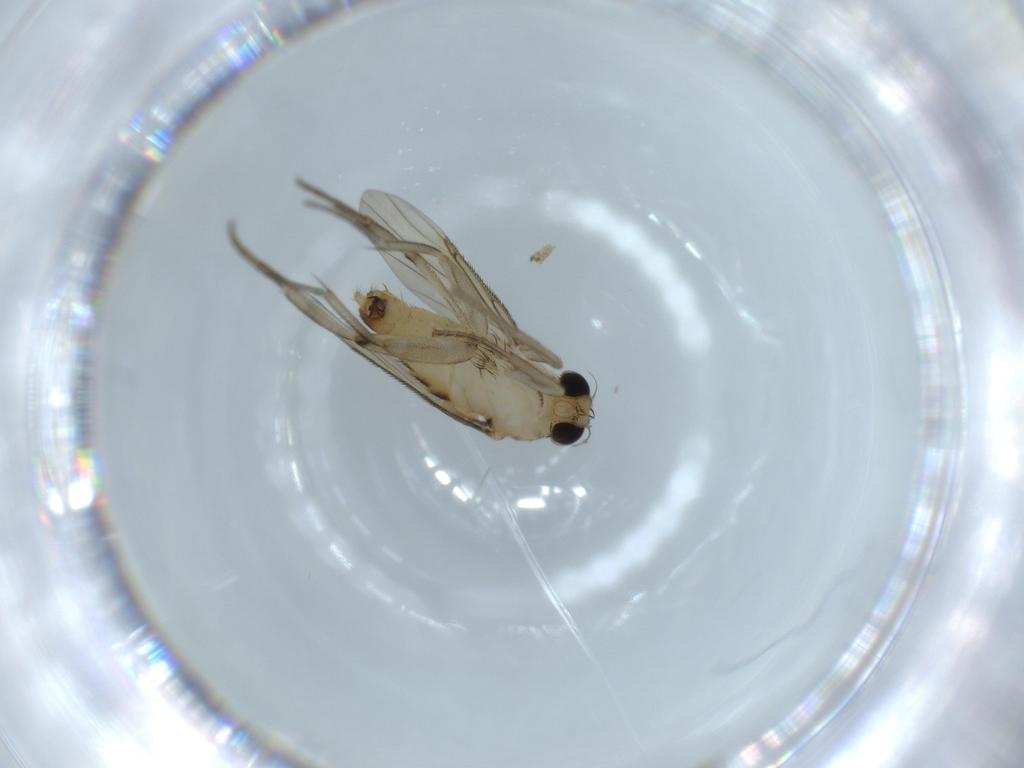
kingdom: Animalia
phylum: Arthropoda
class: Insecta
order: Diptera
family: Phoridae
